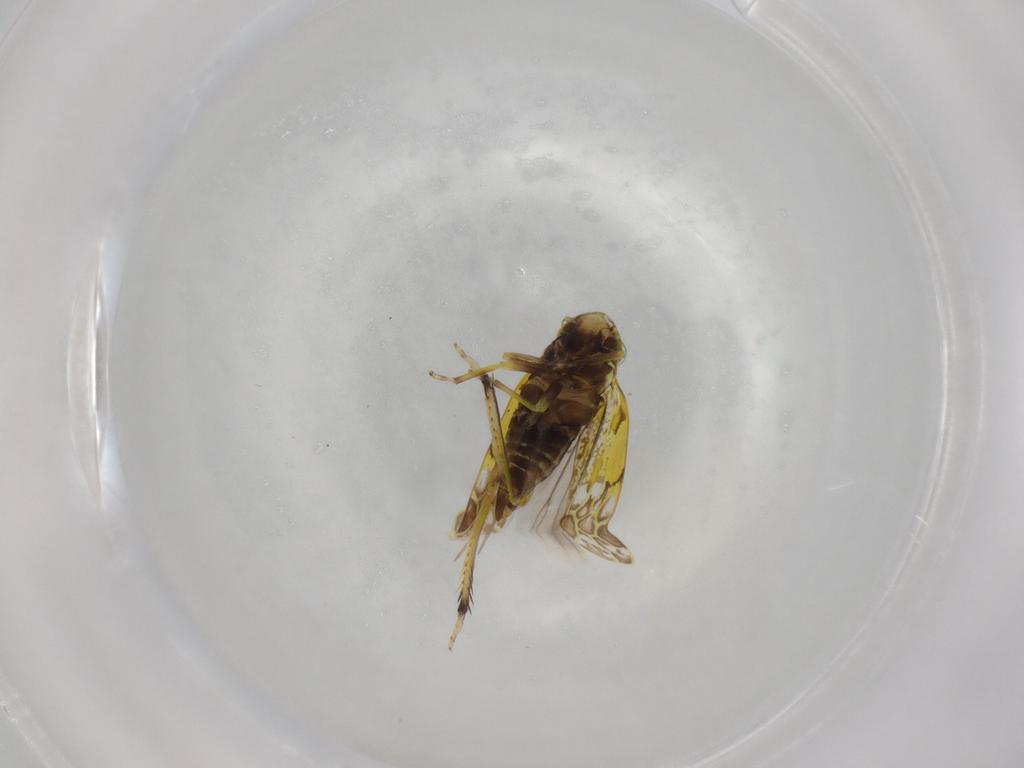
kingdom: Animalia
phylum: Arthropoda
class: Insecta
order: Hemiptera
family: Cicadellidae
